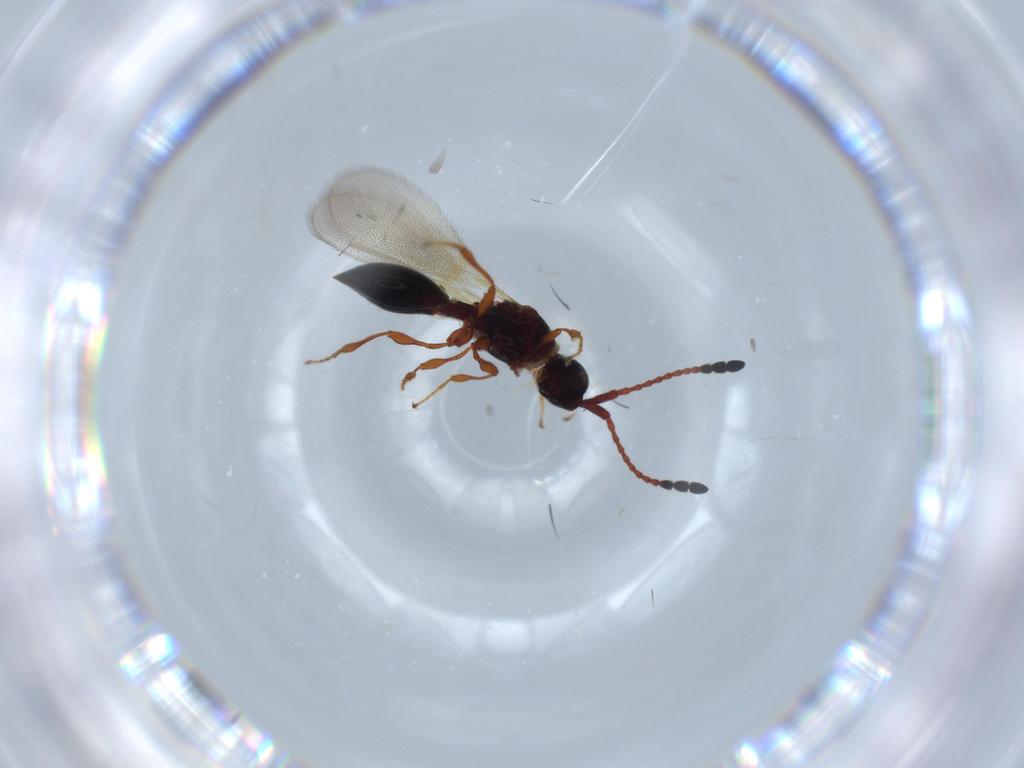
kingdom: Animalia
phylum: Arthropoda
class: Insecta
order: Hymenoptera
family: Diapriidae
